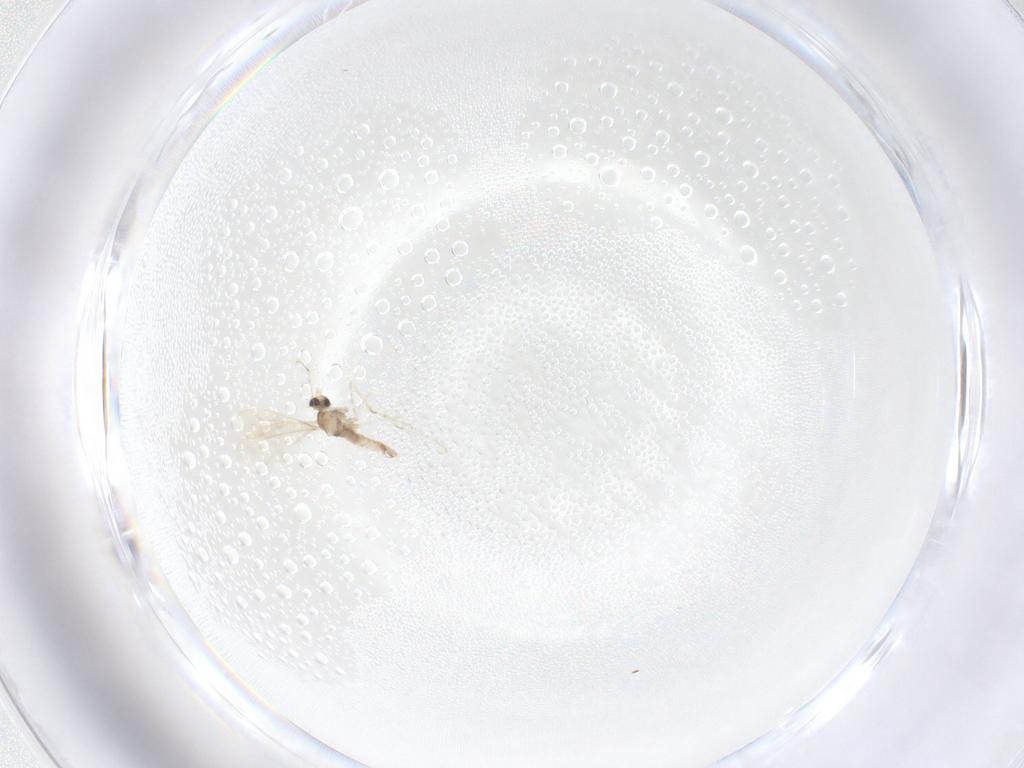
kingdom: Animalia
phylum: Arthropoda
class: Insecta
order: Diptera
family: Cecidomyiidae
